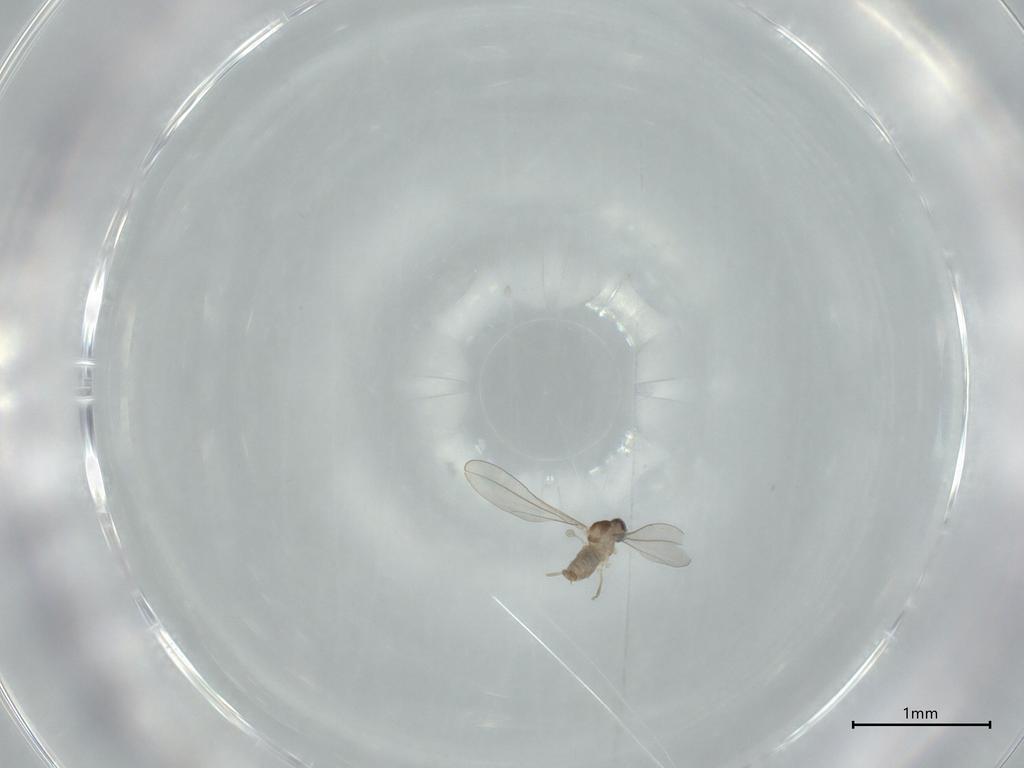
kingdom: Animalia
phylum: Arthropoda
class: Insecta
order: Diptera
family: Cecidomyiidae
